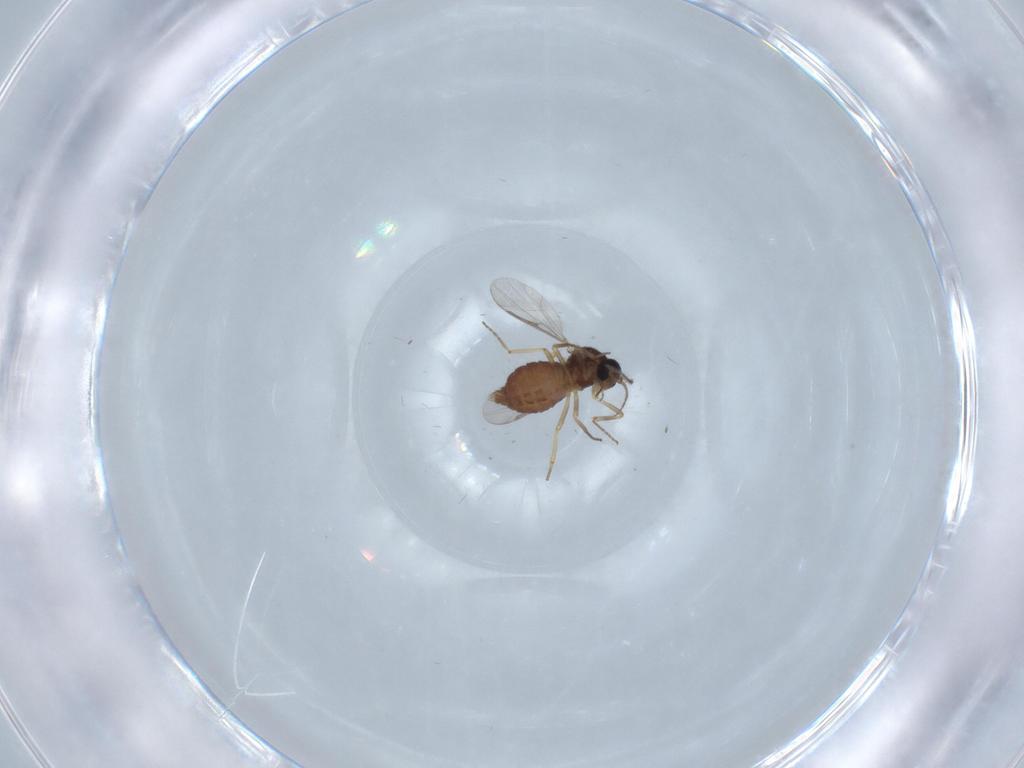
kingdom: Animalia
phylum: Arthropoda
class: Insecta
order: Diptera
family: Ceratopogonidae
